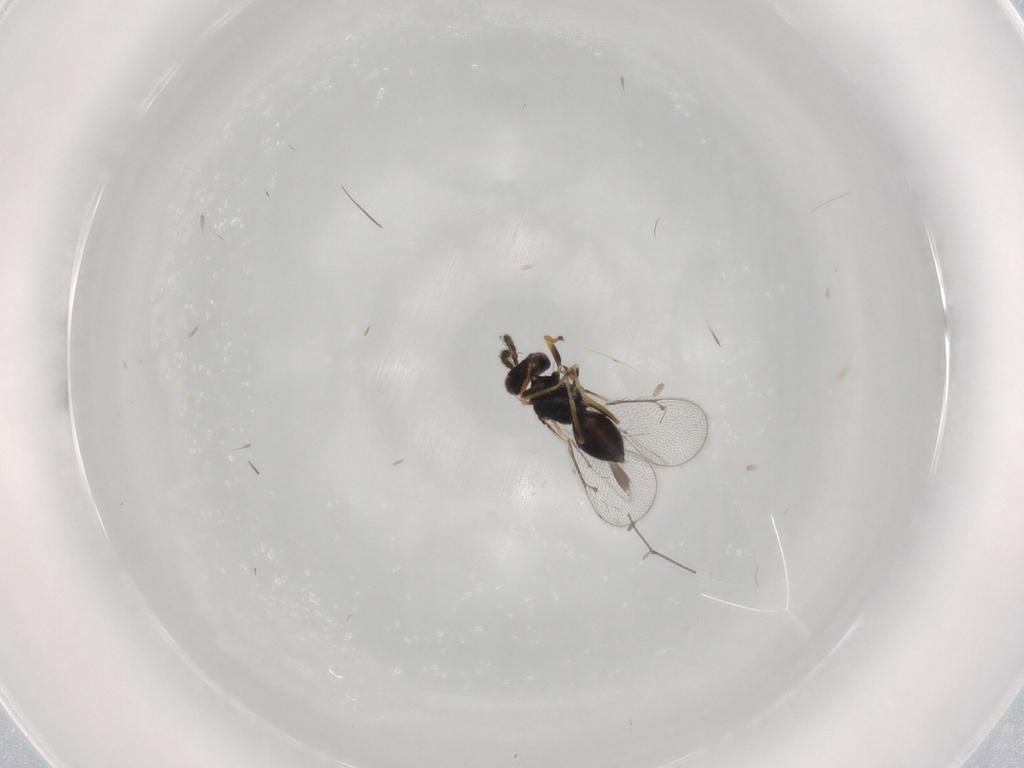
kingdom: Animalia
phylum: Arthropoda
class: Insecta
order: Hymenoptera
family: Eulophidae
